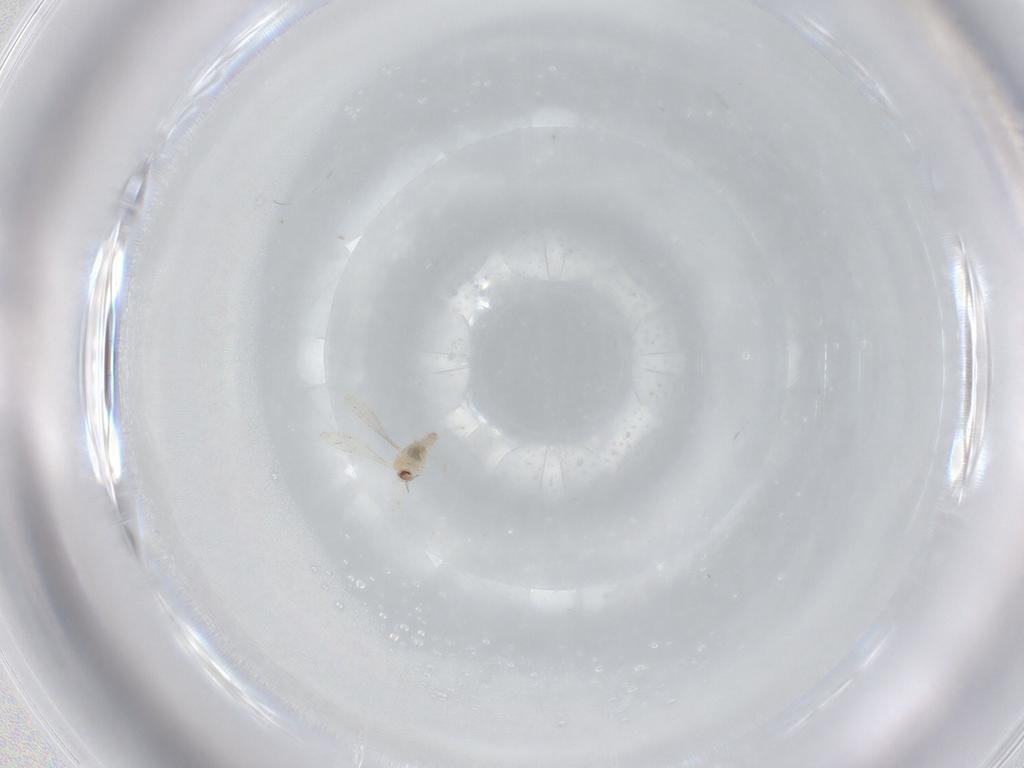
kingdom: Animalia
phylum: Arthropoda
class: Insecta
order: Diptera
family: Cecidomyiidae
